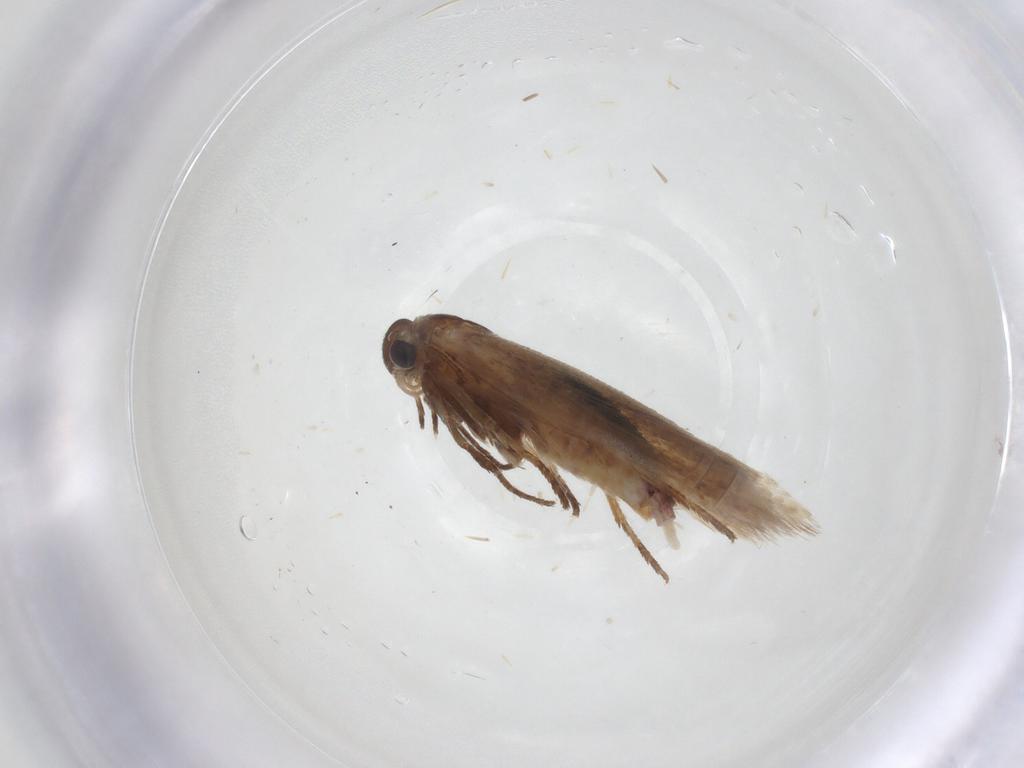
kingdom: Animalia
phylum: Arthropoda
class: Insecta
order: Lepidoptera
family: Cosmopterigidae
